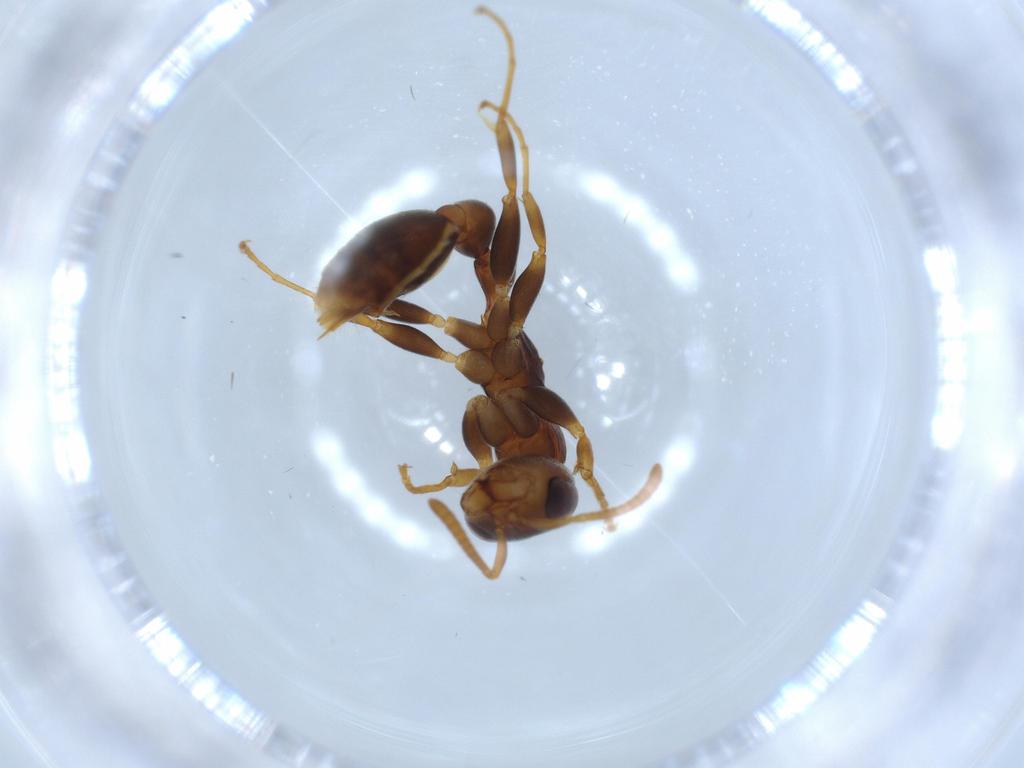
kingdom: Animalia
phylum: Arthropoda
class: Insecta
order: Hymenoptera
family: Formicidae
